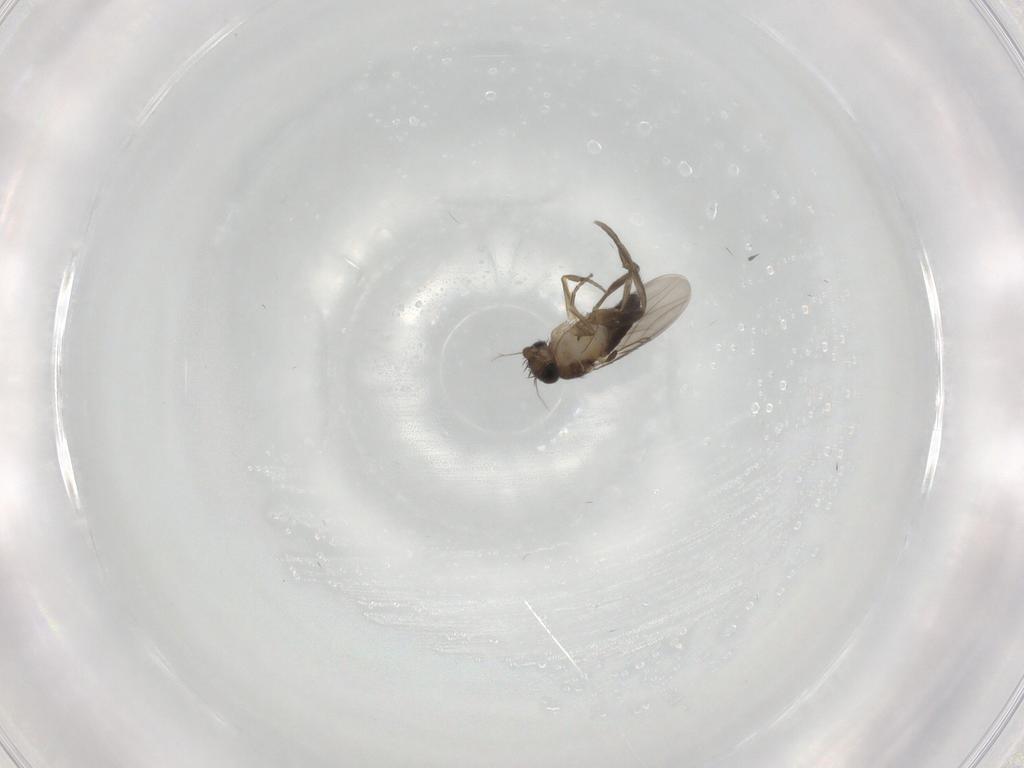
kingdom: Animalia
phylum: Arthropoda
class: Insecta
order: Diptera
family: Phoridae
